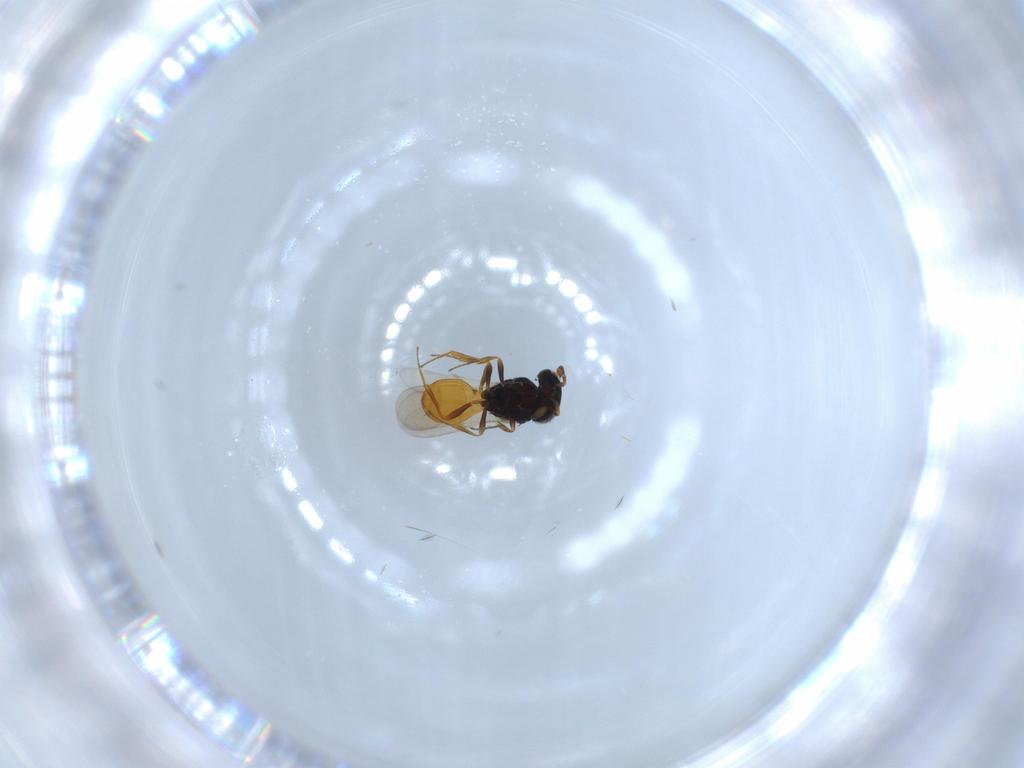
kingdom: Animalia
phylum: Arthropoda
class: Insecta
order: Hymenoptera
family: Scelionidae
